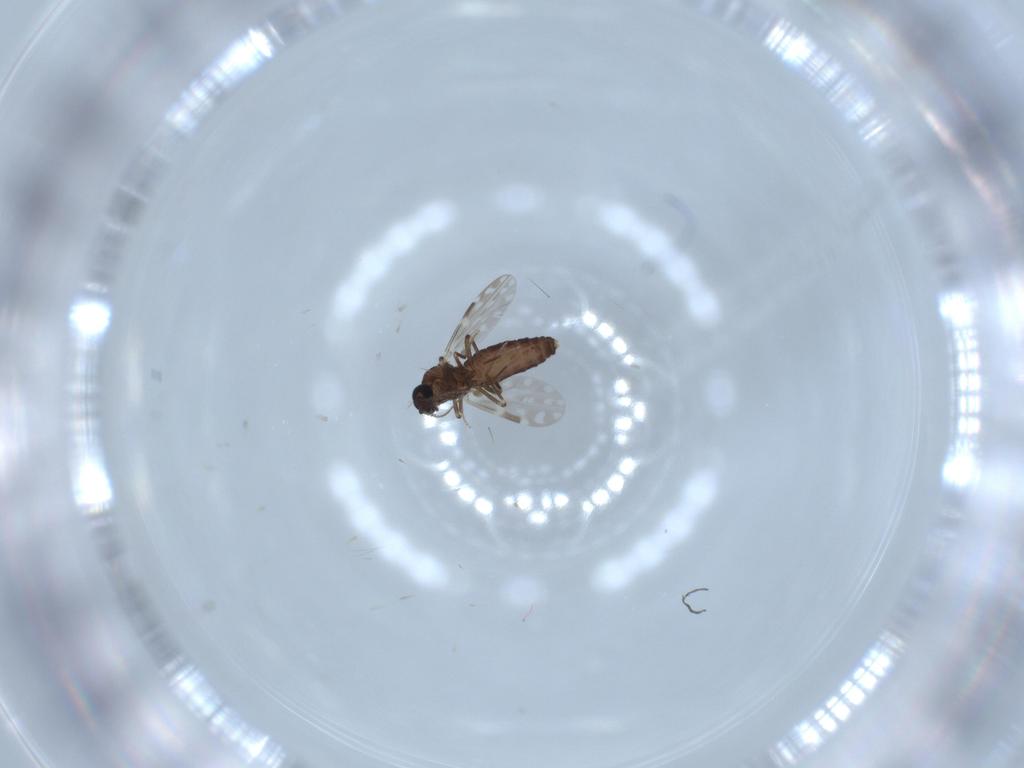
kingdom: Animalia
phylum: Arthropoda
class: Insecta
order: Diptera
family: Ceratopogonidae
